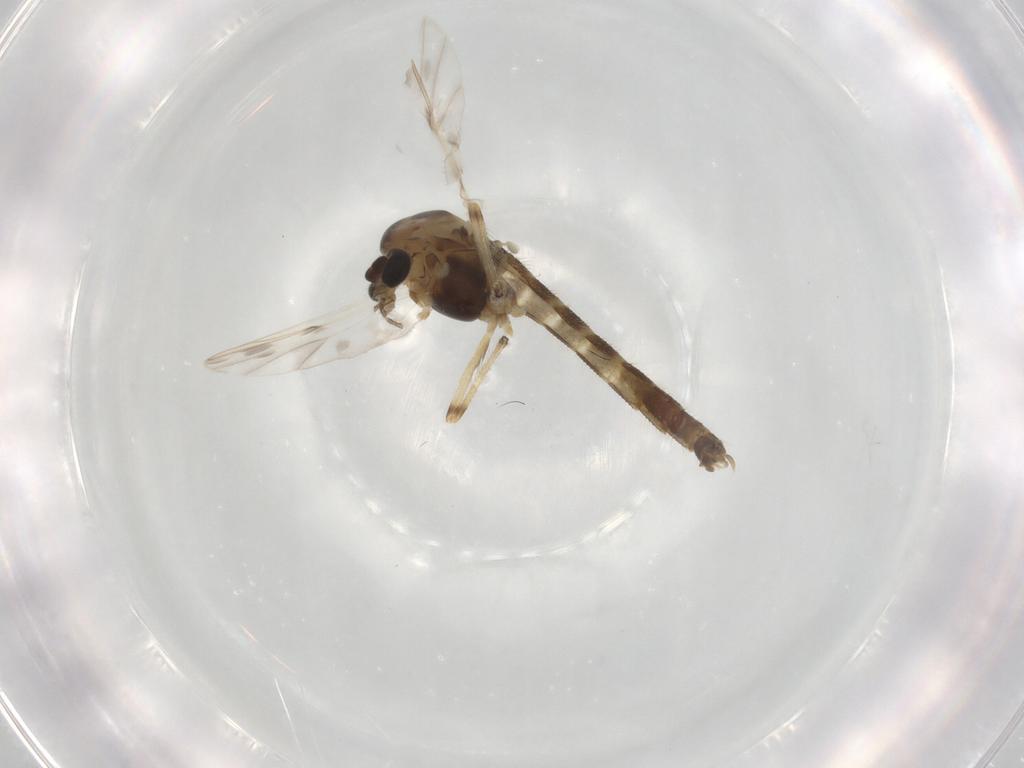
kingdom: Animalia
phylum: Arthropoda
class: Insecta
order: Diptera
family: Chironomidae
